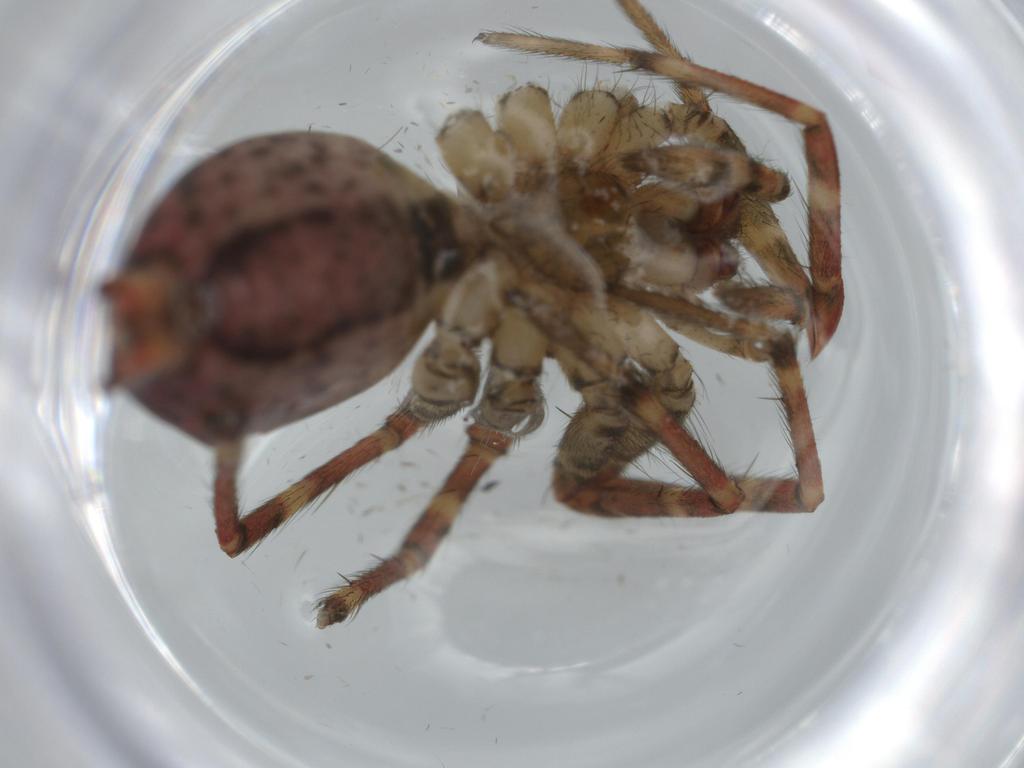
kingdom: Animalia
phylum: Arthropoda
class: Arachnida
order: Araneae
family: Agelenidae
